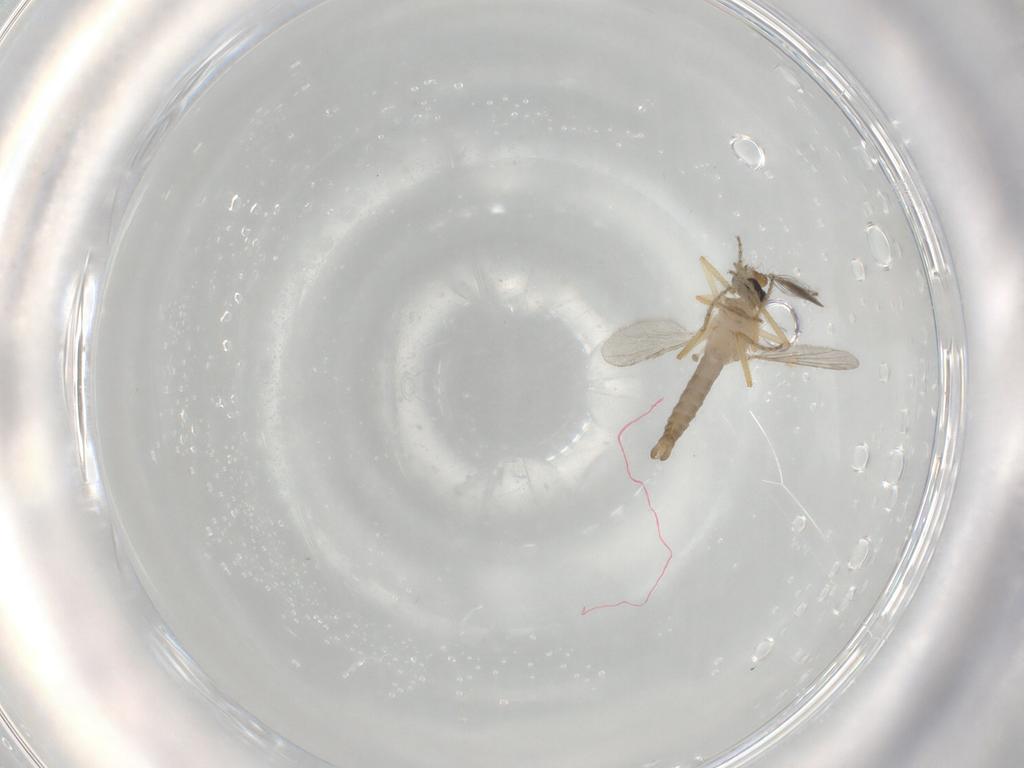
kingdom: Animalia
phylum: Arthropoda
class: Insecta
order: Diptera
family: Ceratopogonidae
